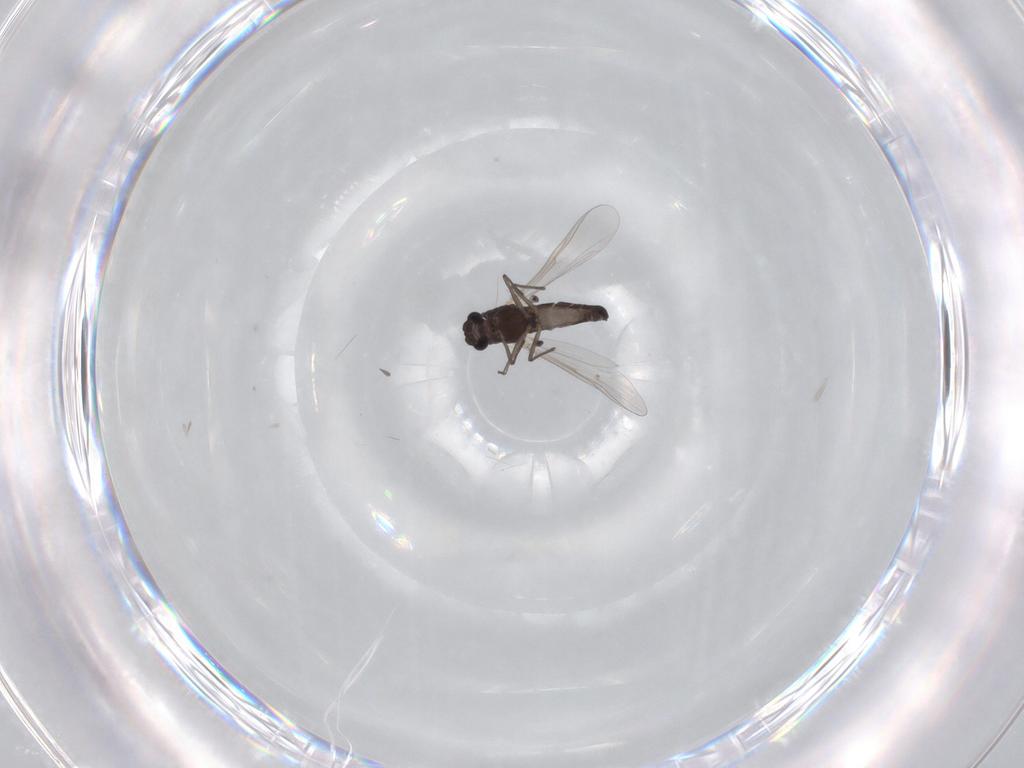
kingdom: Animalia
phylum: Arthropoda
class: Insecta
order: Diptera
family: Chironomidae
